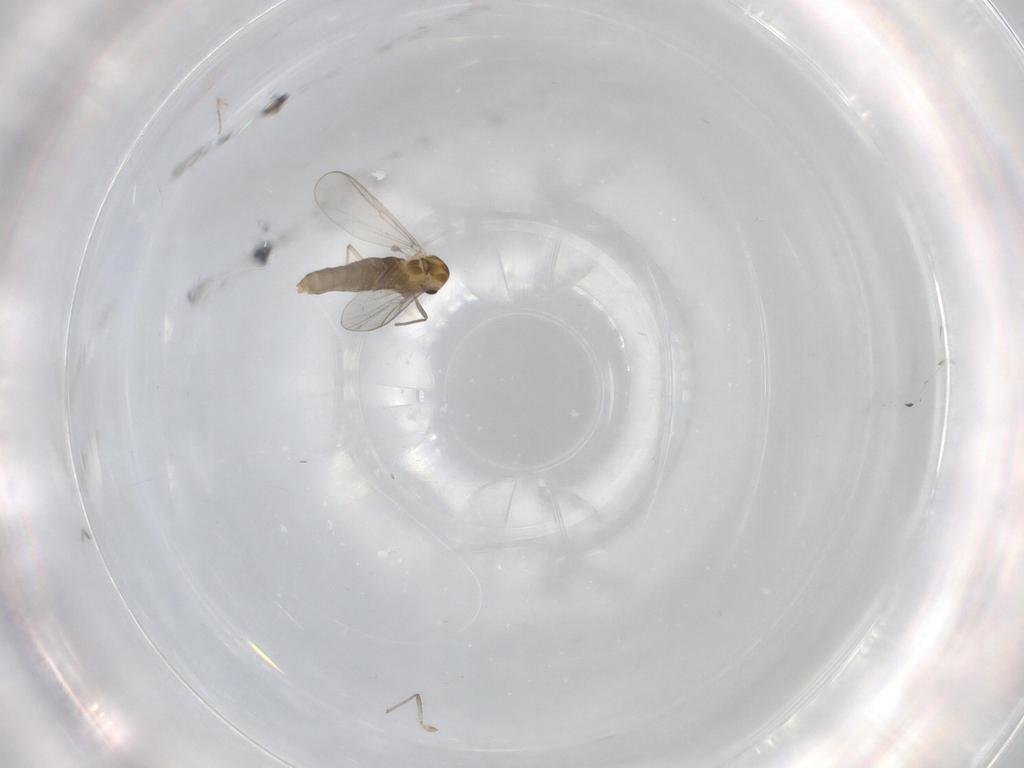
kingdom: Animalia
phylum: Arthropoda
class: Insecta
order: Diptera
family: Chironomidae
